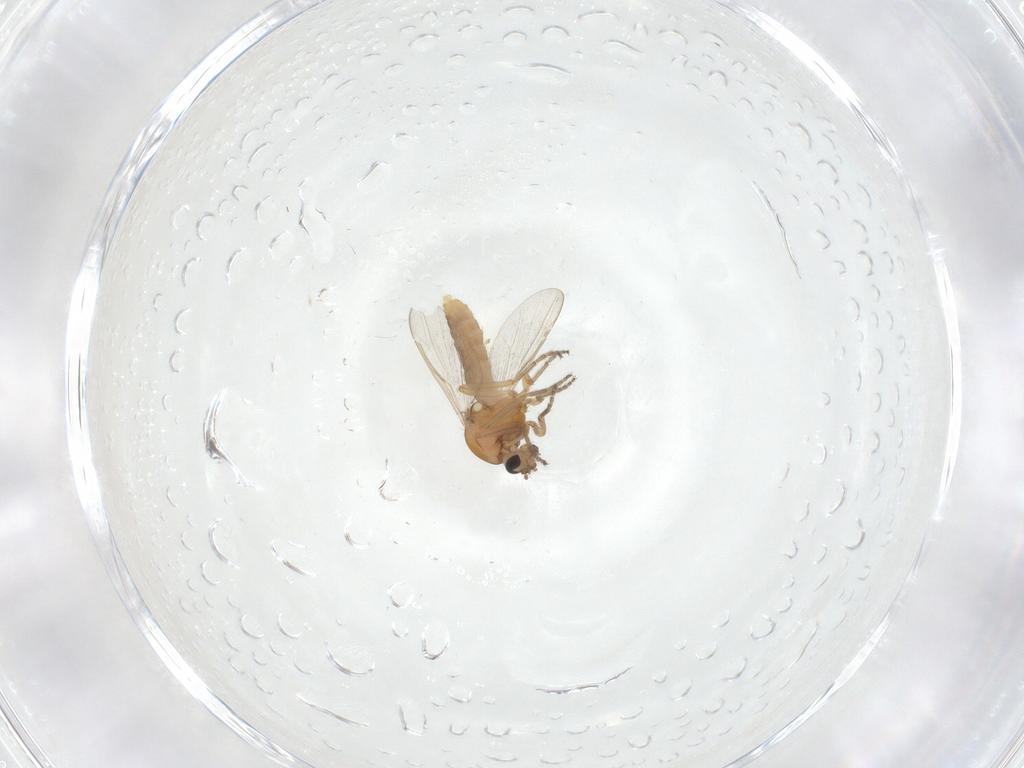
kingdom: Animalia
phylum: Arthropoda
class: Insecta
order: Diptera
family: Ceratopogonidae
